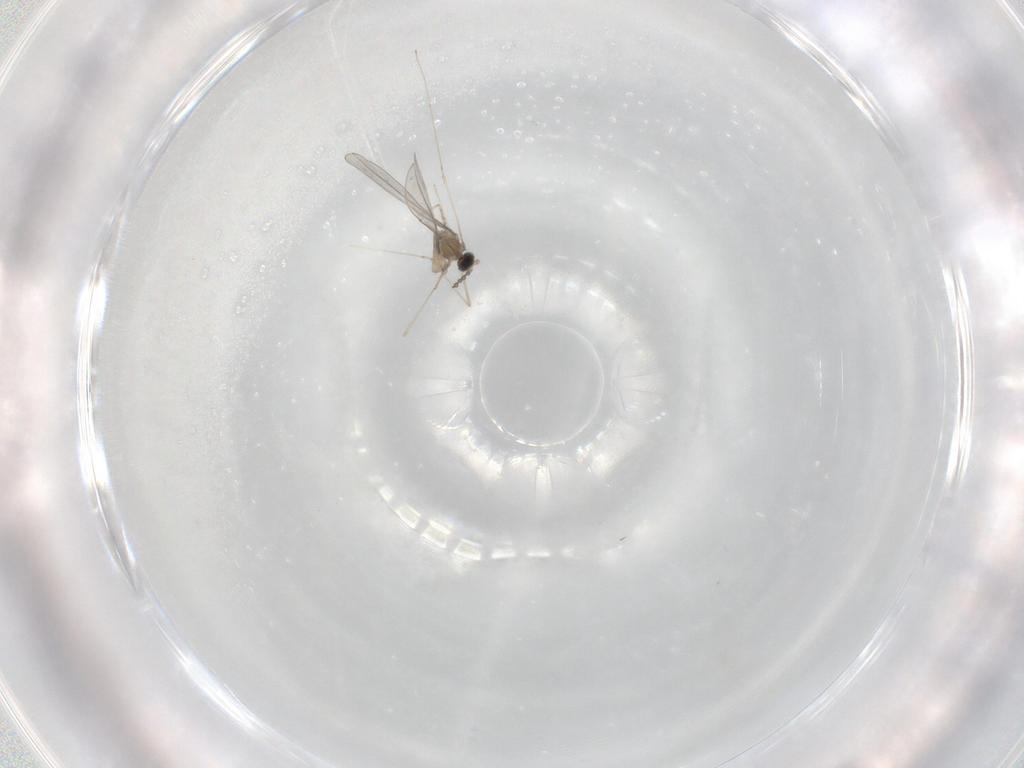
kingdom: Animalia
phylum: Arthropoda
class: Insecta
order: Diptera
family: Cecidomyiidae
